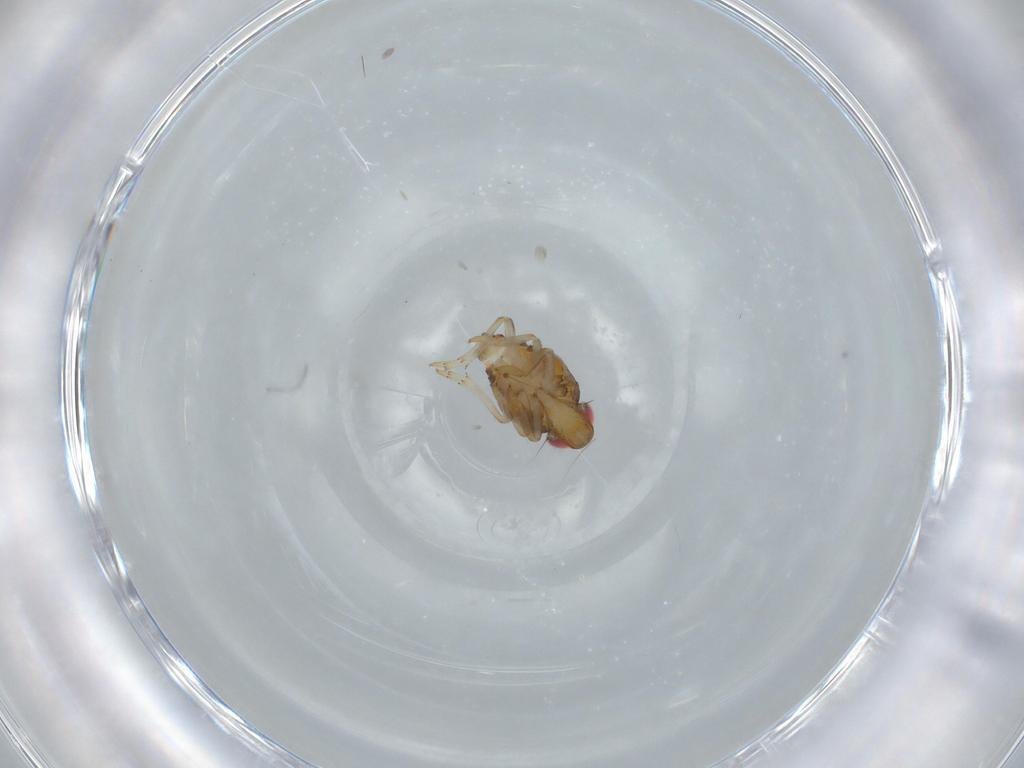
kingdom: Animalia
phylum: Arthropoda
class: Insecta
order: Hemiptera
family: Issidae
